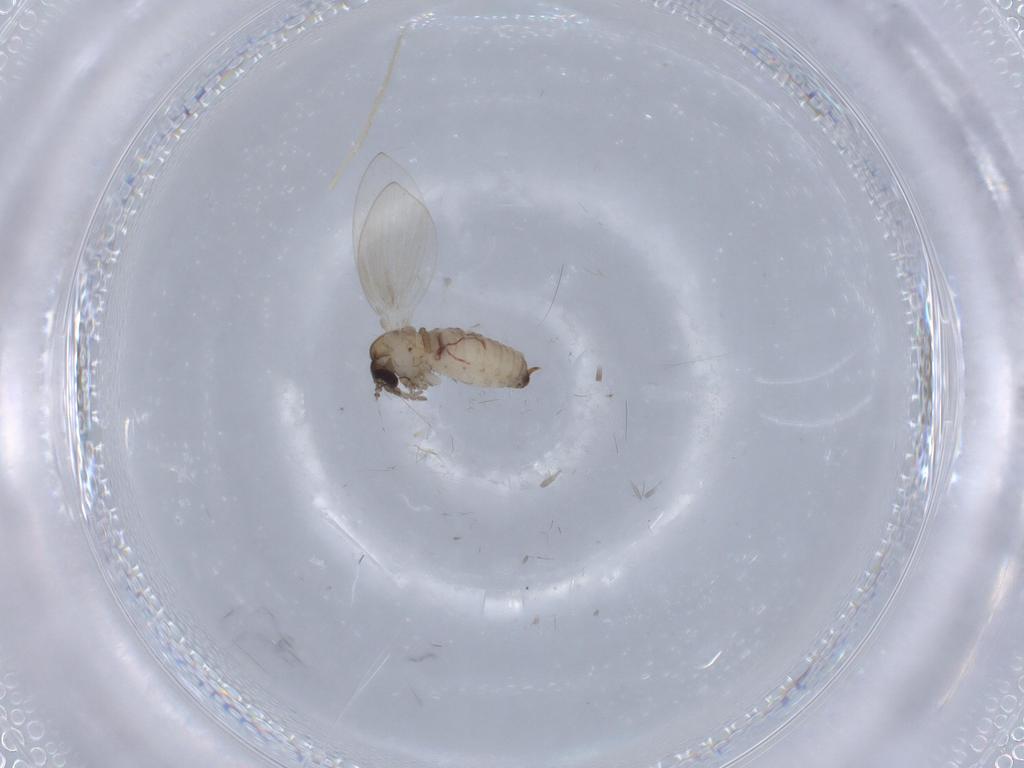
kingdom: Animalia
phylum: Arthropoda
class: Insecta
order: Diptera
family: Psychodidae
